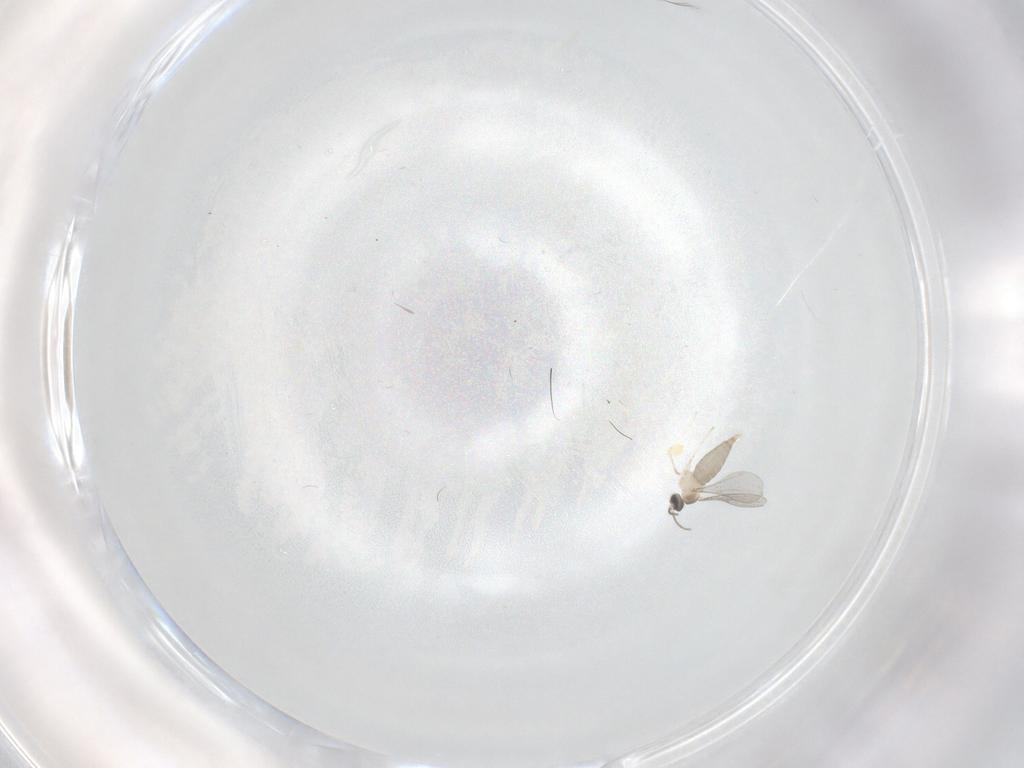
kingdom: Animalia
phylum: Arthropoda
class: Insecta
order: Diptera
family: Cecidomyiidae
